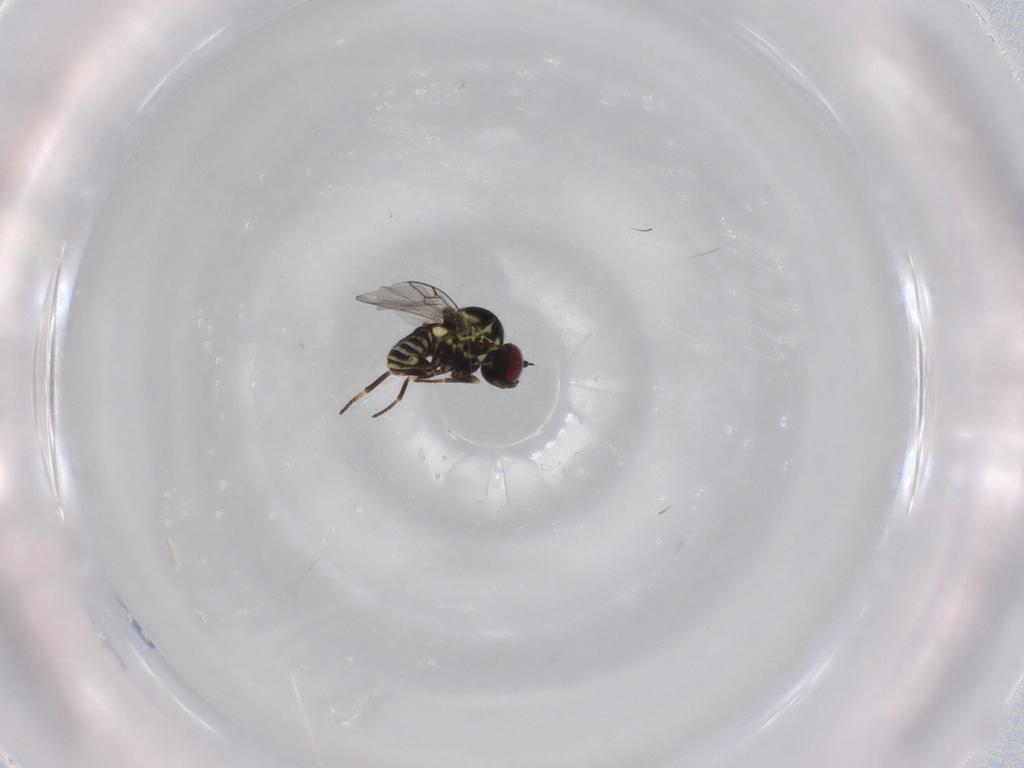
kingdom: Animalia
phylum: Arthropoda
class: Insecta
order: Diptera
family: Mythicomyiidae
